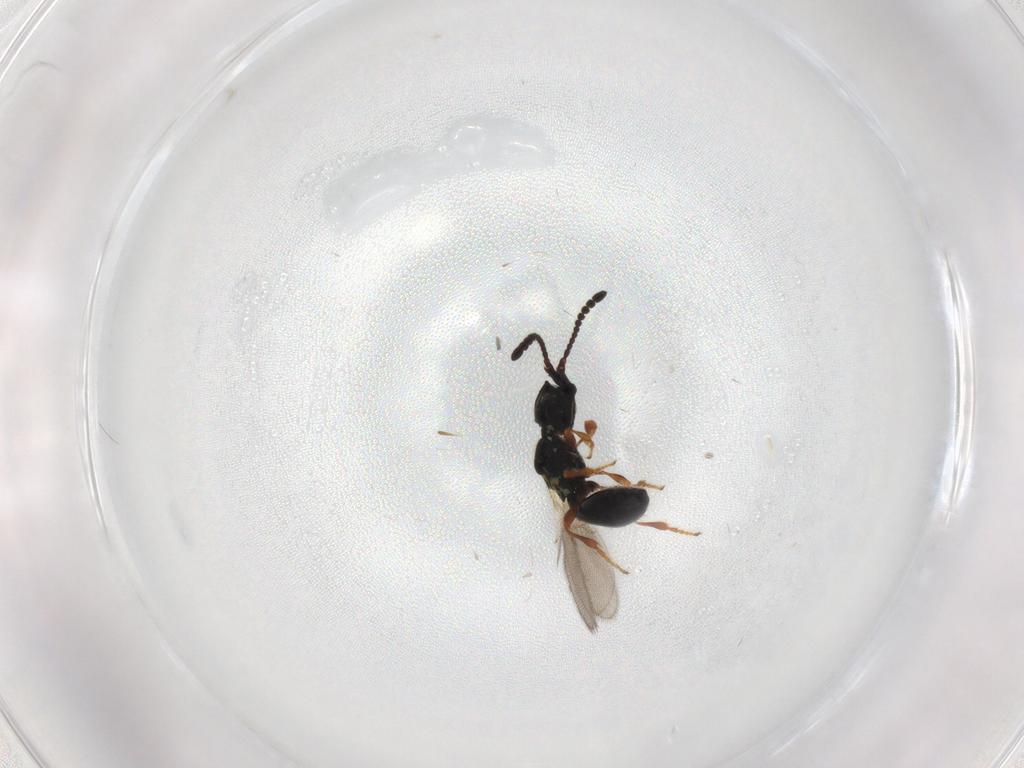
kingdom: Animalia
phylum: Arthropoda
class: Insecta
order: Hymenoptera
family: Diapriidae
